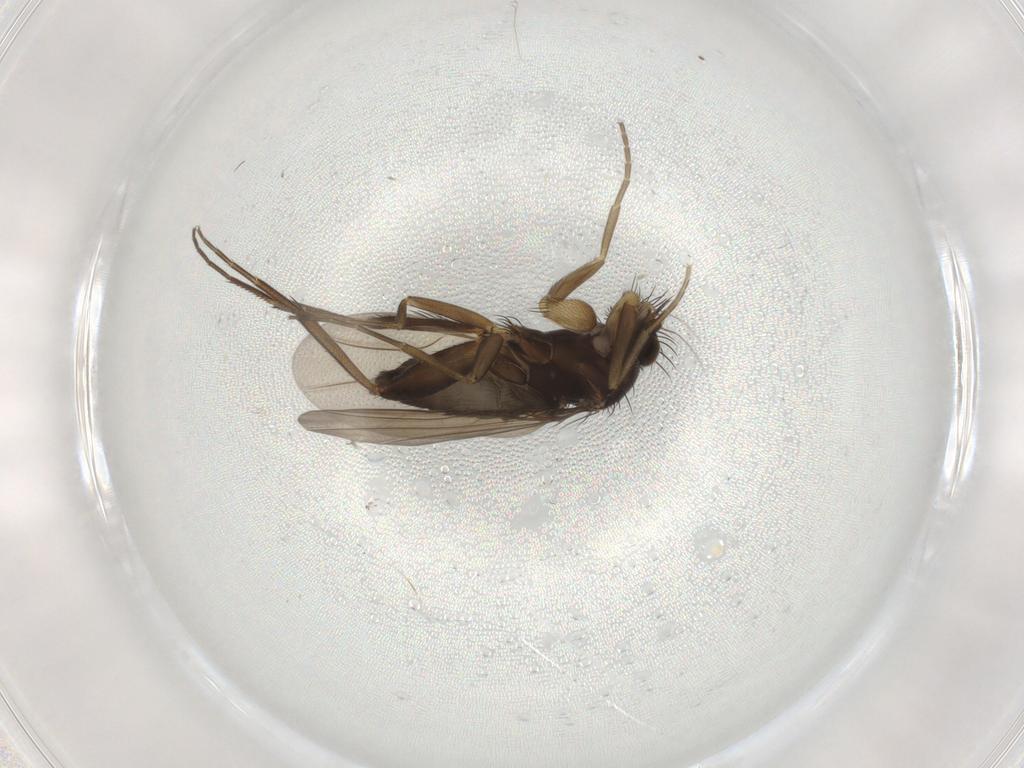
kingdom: Animalia
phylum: Arthropoda
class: Insecta
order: Diptera
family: Phoridae
